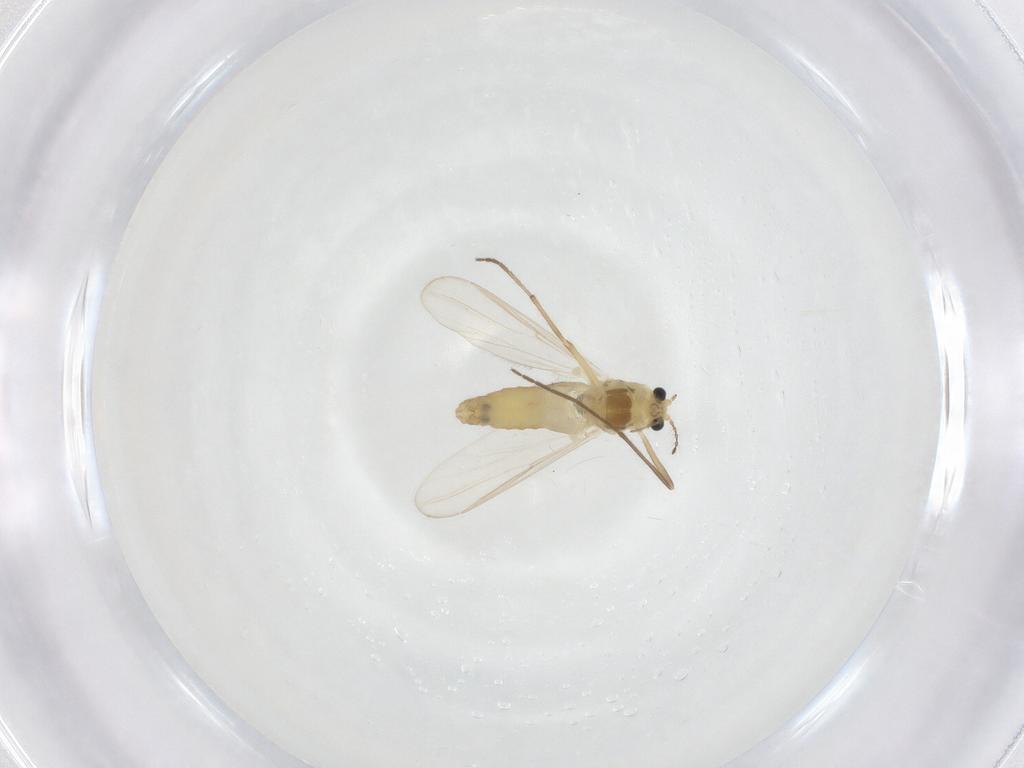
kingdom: Animalia
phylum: Arthropoda
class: Insecta
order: Diptera
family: Chironomidae
